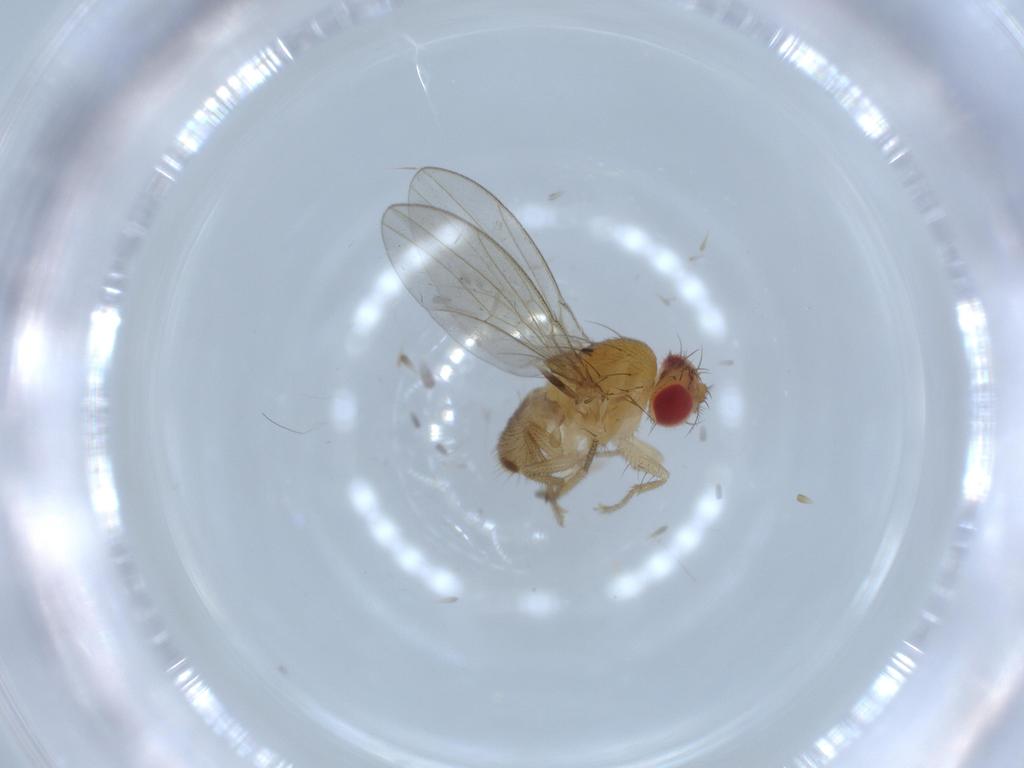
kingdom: Animalia
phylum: Arthropoda
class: Insecta
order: Diptera
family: Drosophilidae
